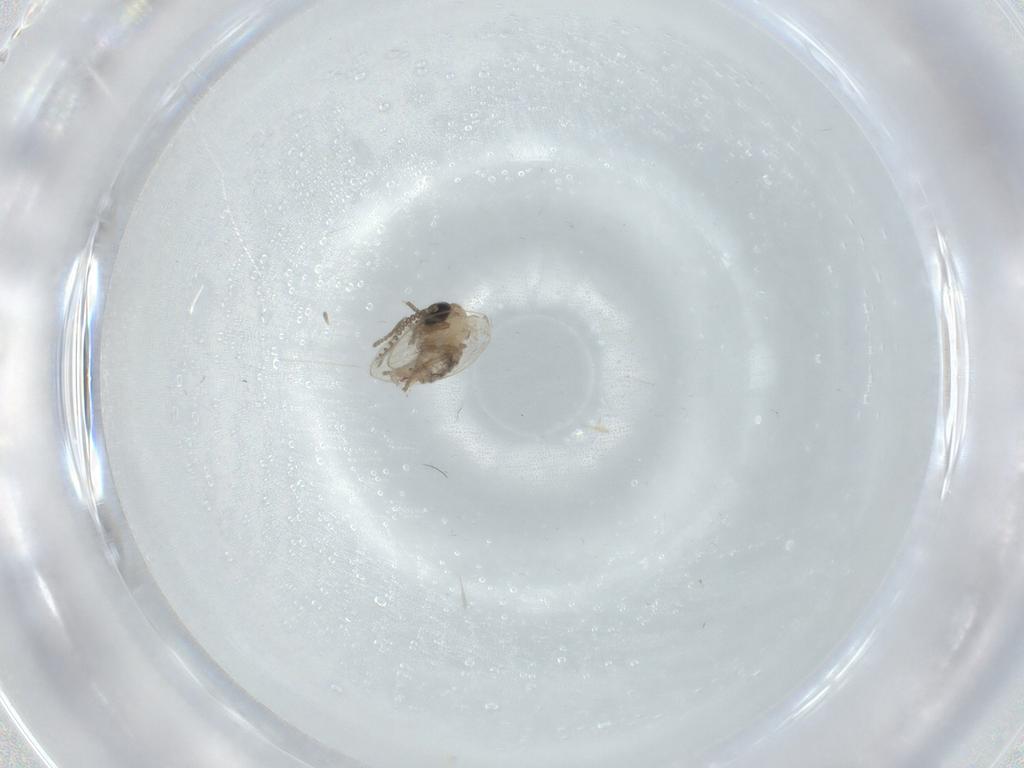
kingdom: Animalia
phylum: Arthropoda
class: Insecta
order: Diptera
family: Psychodidae
